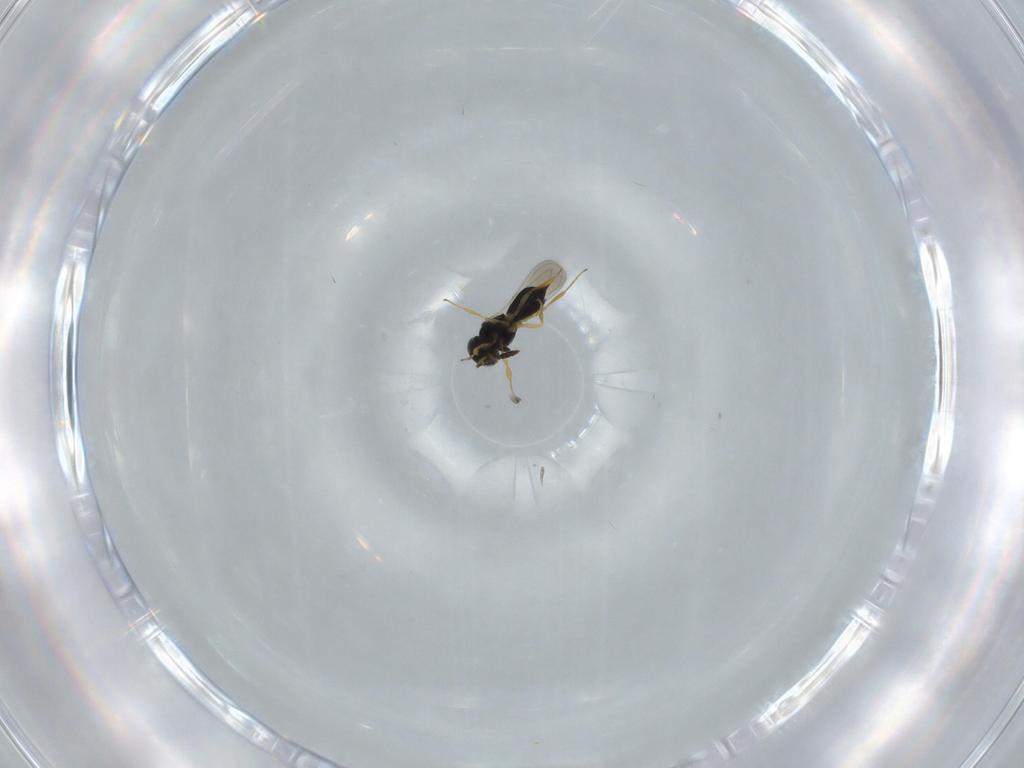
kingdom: Animalia
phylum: Arthropoda
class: Insecta
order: Hymenoptera
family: Scelionidae
